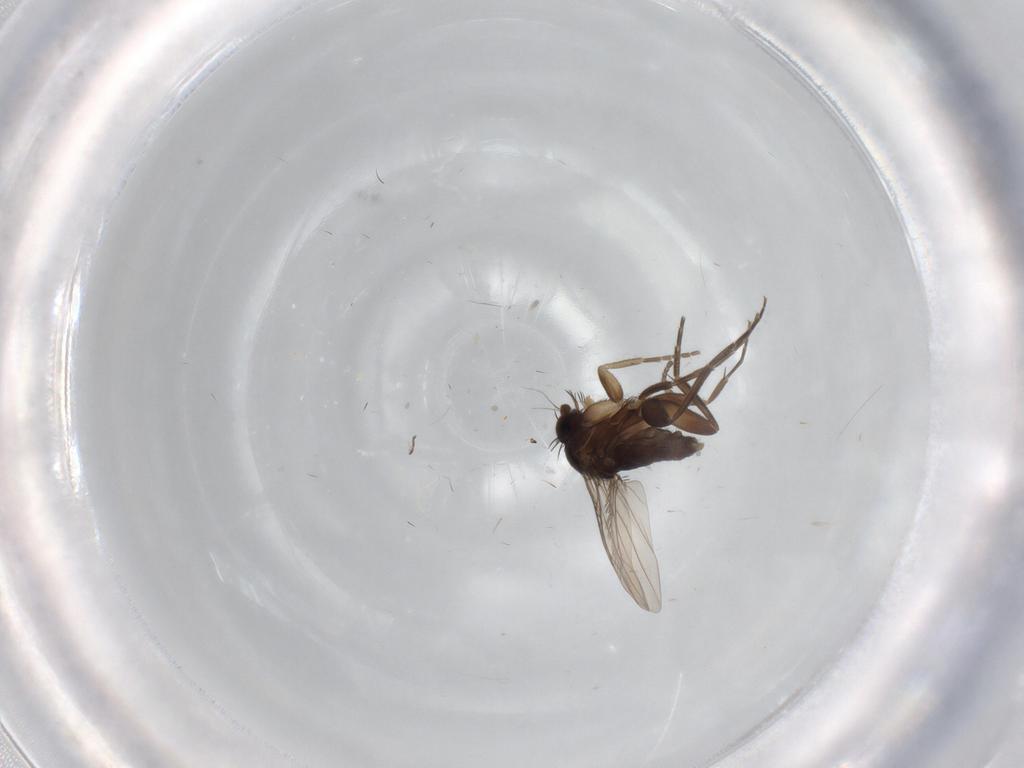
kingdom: Animalia
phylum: Arthropoda
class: Insecta
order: Diptera
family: Phoridae
